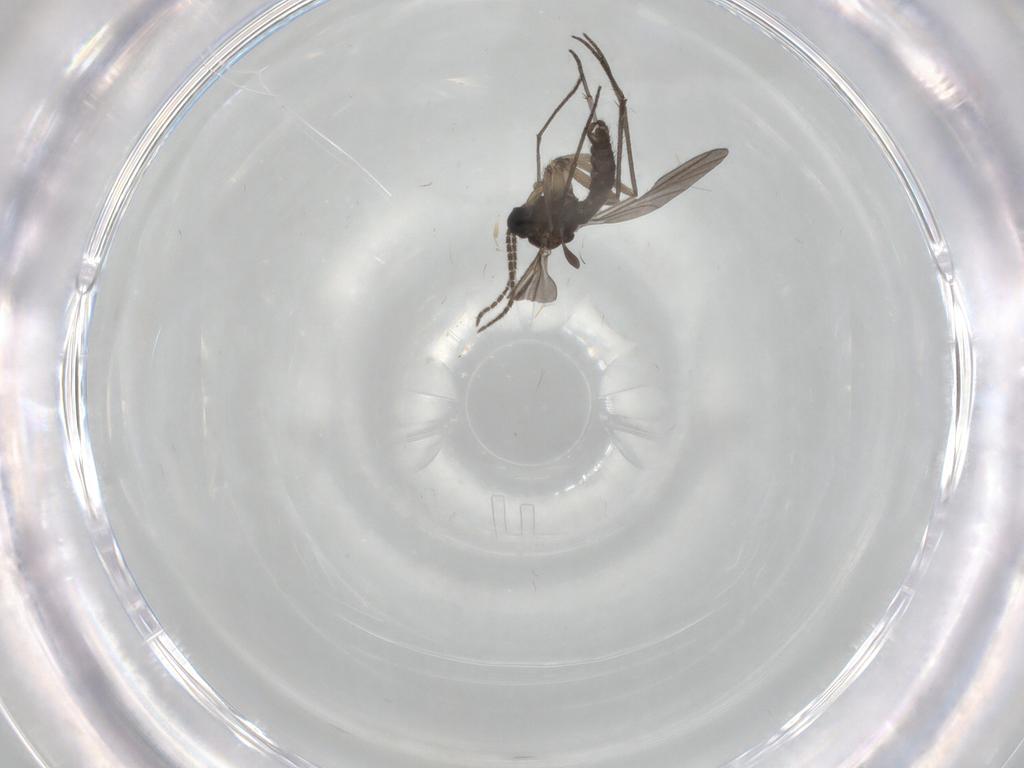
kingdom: Animalia
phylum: Arthropoda
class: Insecta
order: Diptera
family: Sciaridae
